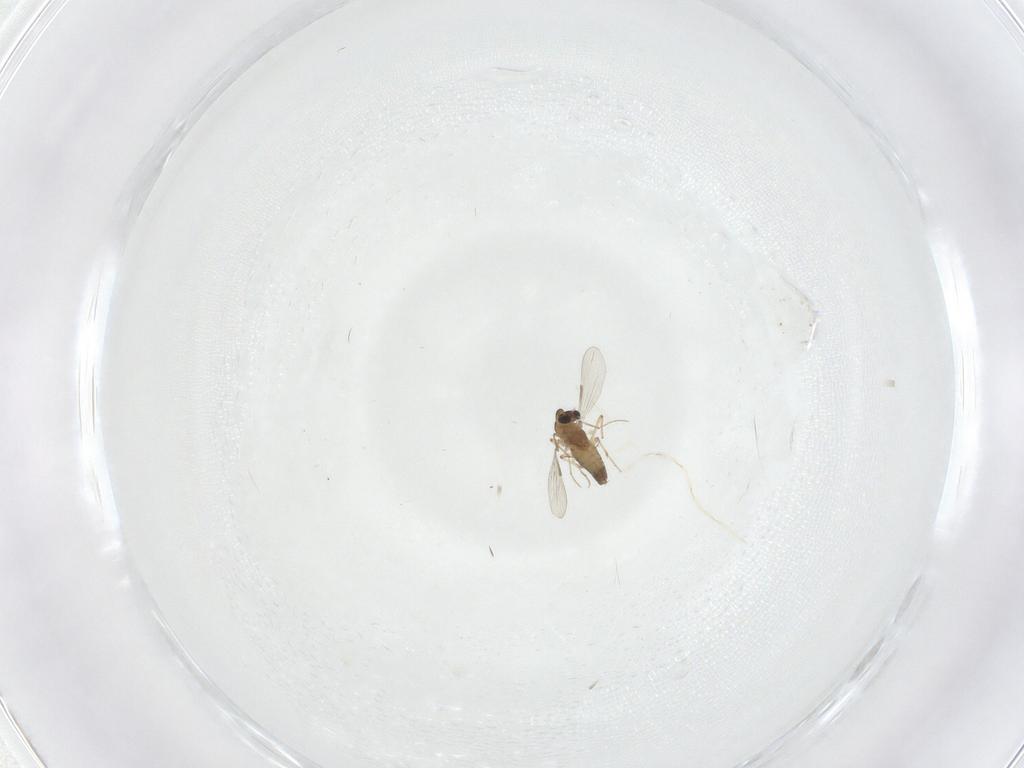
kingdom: Animalia
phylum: Arthropoda
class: Insecta
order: Diptera
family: Chironomidae
